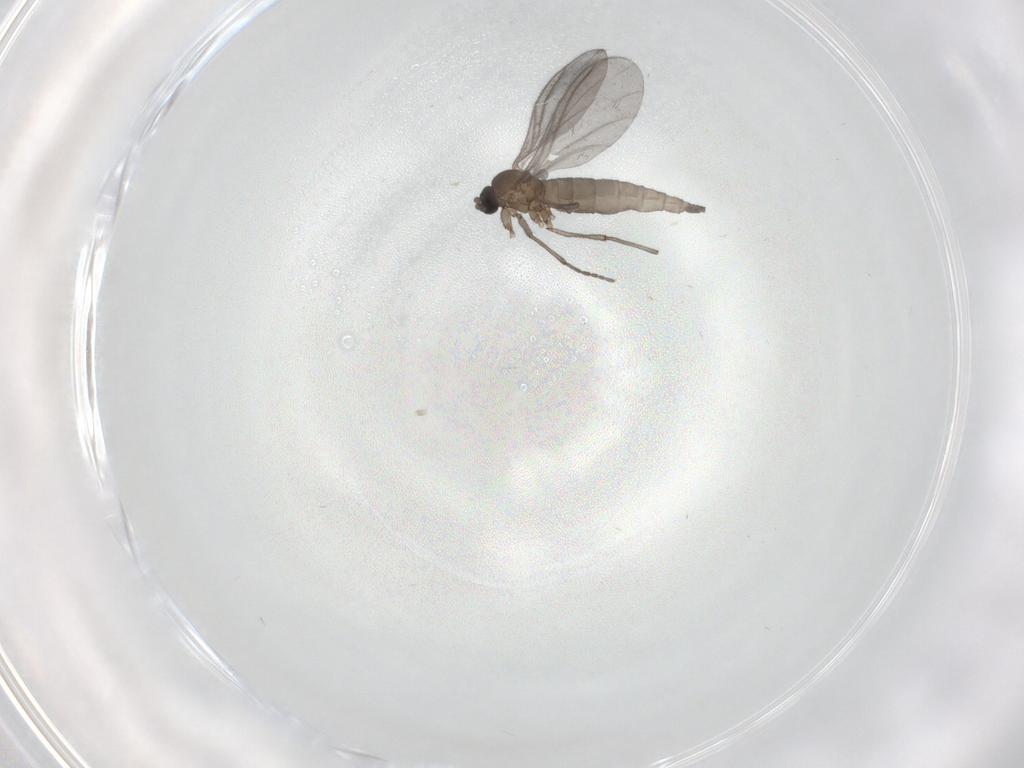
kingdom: Animalia
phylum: Arthropoda
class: Insecta
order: Diptera
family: Sciaridae
